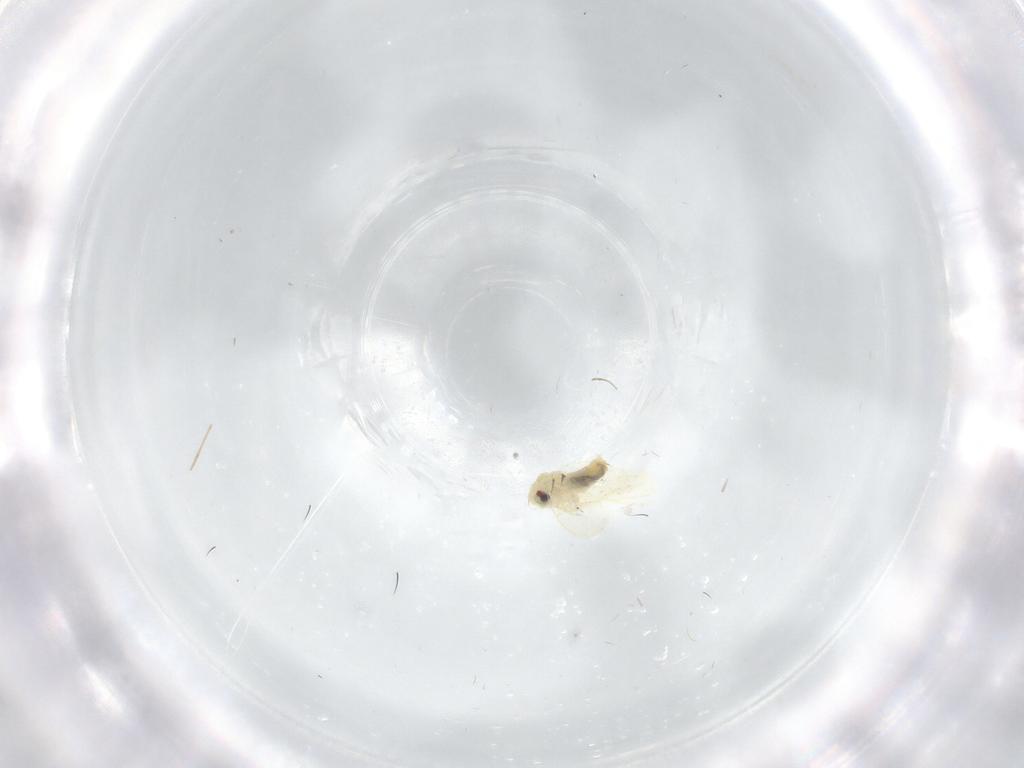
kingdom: Animalia
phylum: Arthropoda
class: Insecta
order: Hemiptera
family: Aleyrodidae
